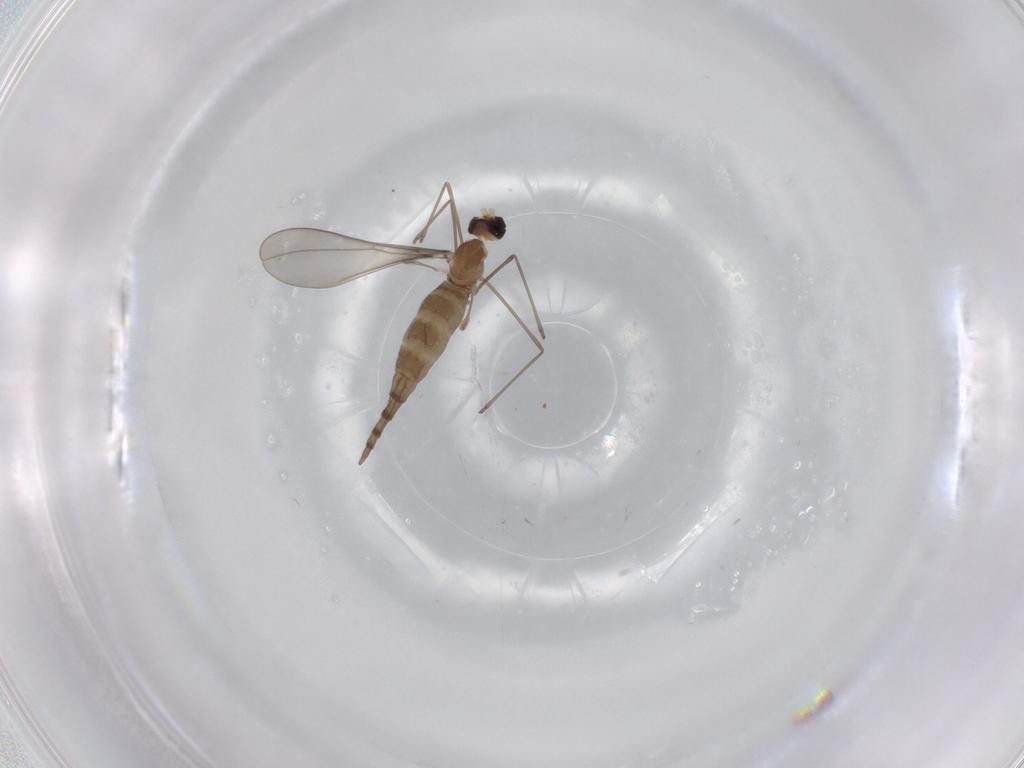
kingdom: Animalia
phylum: Arthropoda
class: Insecta
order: Diptera
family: Cecidomyiidae
